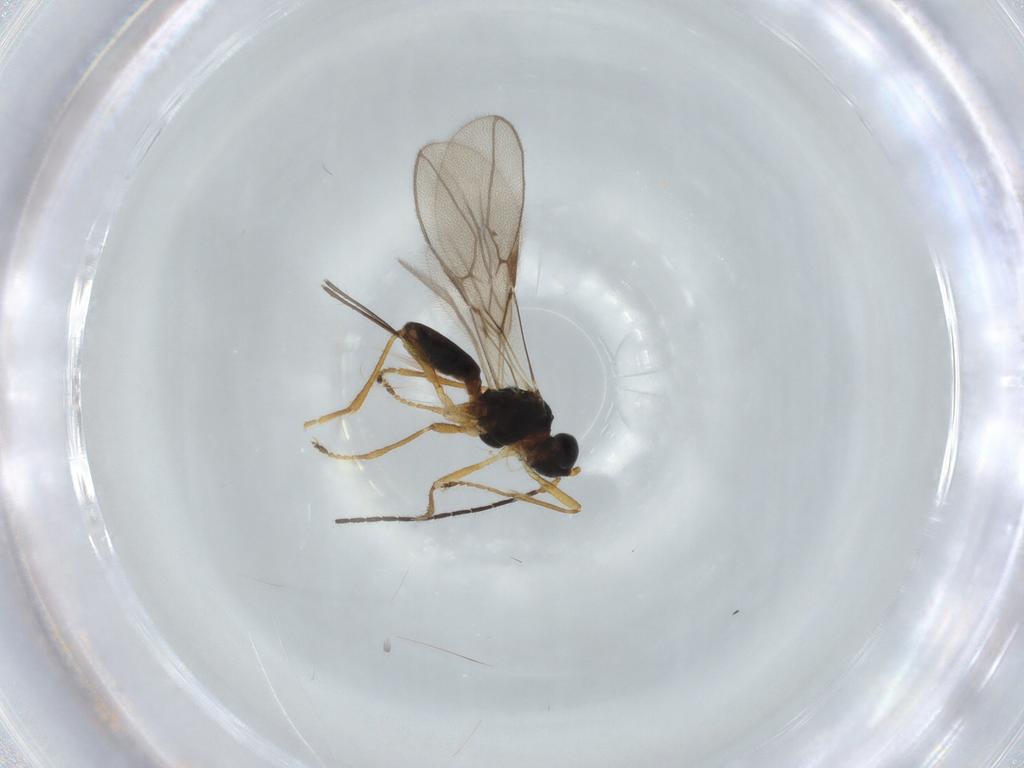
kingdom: Animalia
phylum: Arthropoda
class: Insecta
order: Hymenoptera
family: Braconidae
